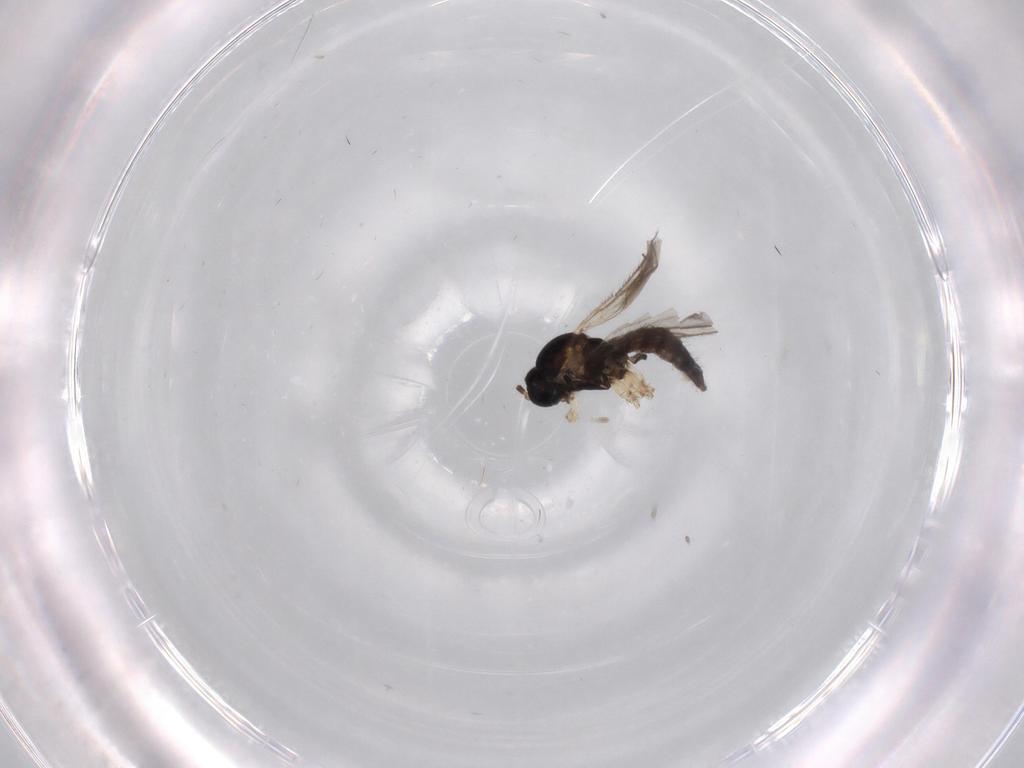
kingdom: Animalia
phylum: Arthropoda
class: Insecta
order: Diptera
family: Sciaridae
